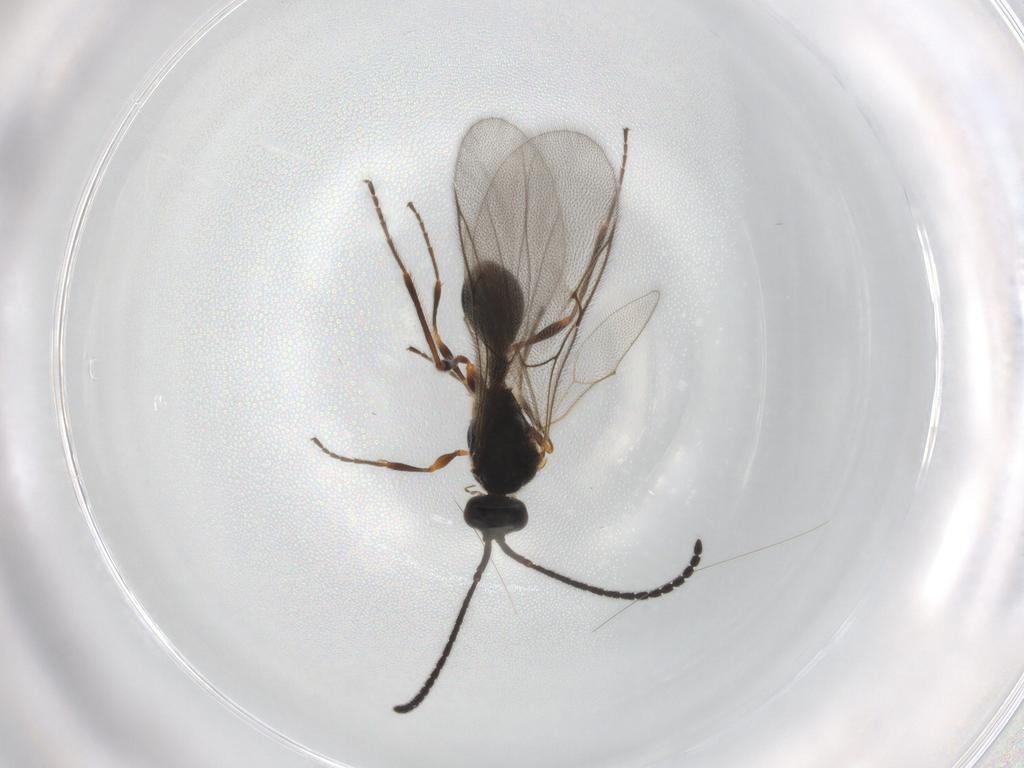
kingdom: Animalia
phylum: Arthropoda
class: Insecta
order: Hymenoptera
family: Diapriidae
